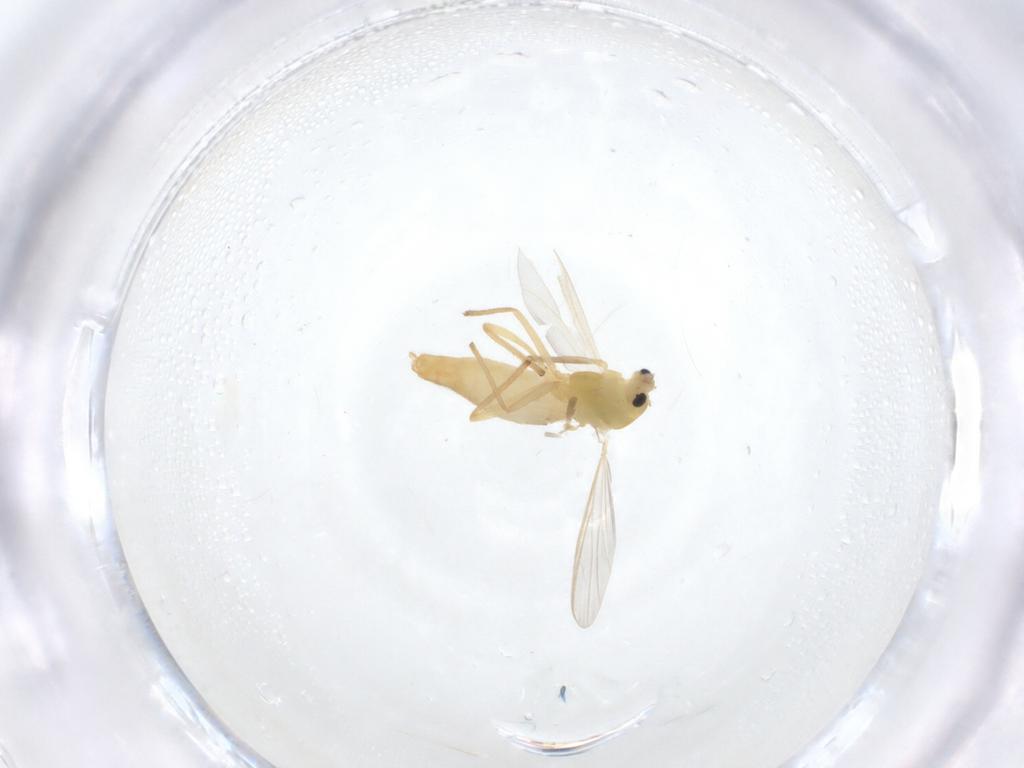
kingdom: Animalia
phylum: Arthropoda
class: Insecta
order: Diptera
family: Chironomidae
